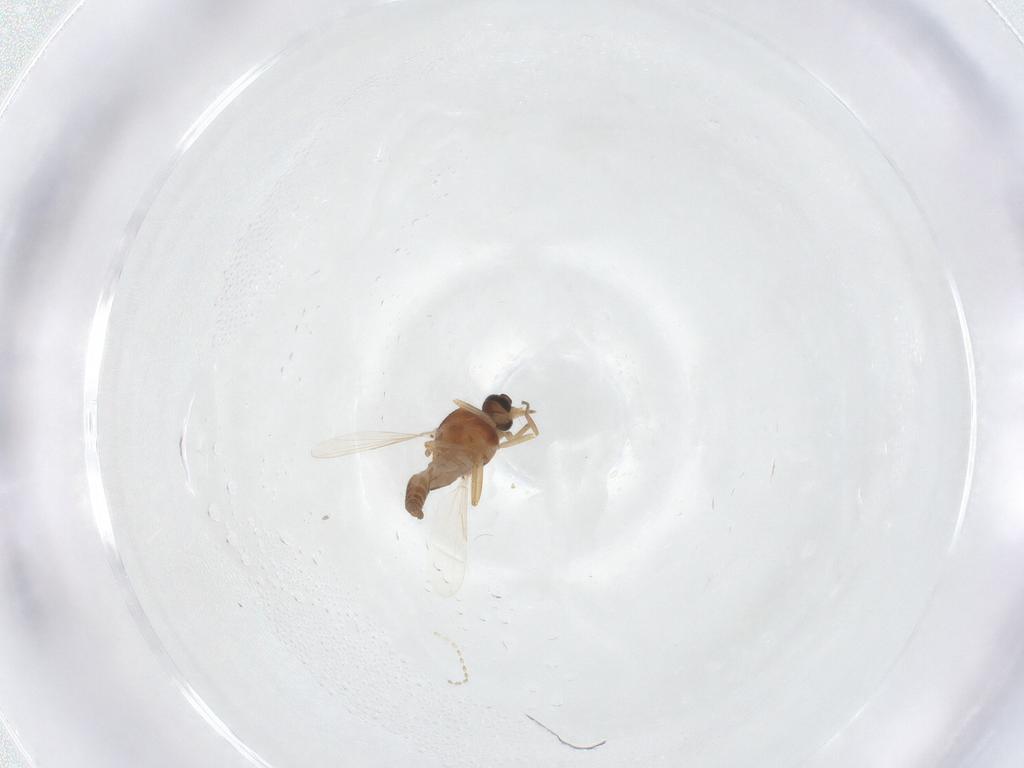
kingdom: Animalia
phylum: Arthropoda
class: Insecta
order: Diptera
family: Ceratopogonidae
